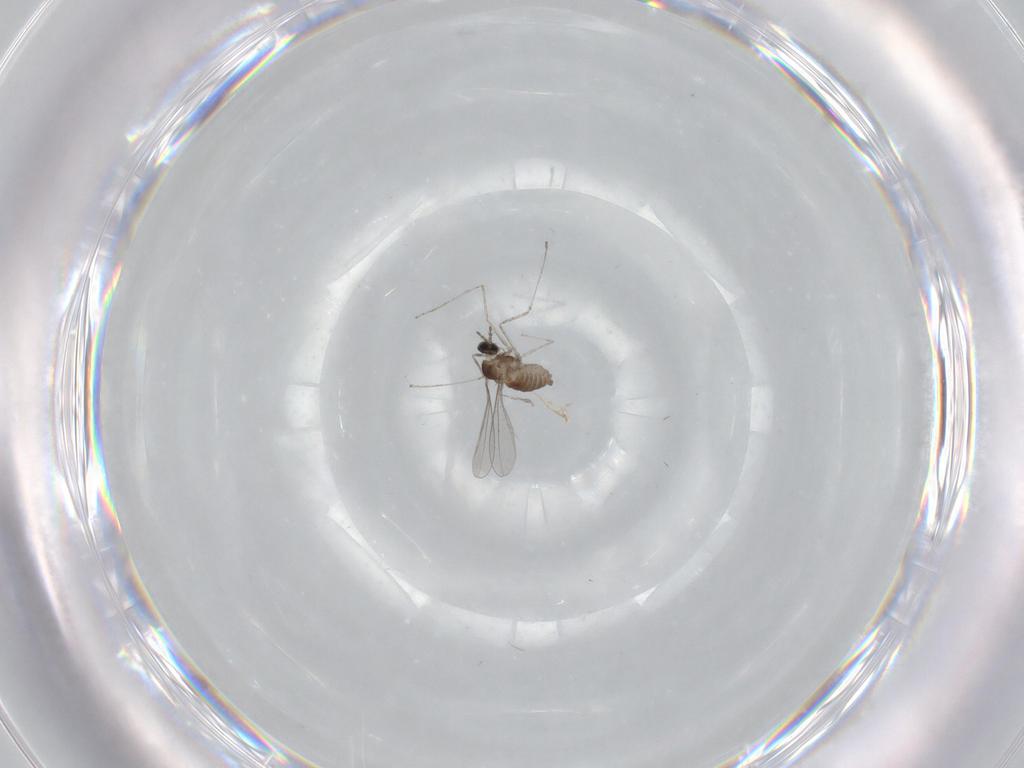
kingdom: Animalia
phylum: Arthropoda
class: Insecta
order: Diptera
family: Cecidomyiidae
